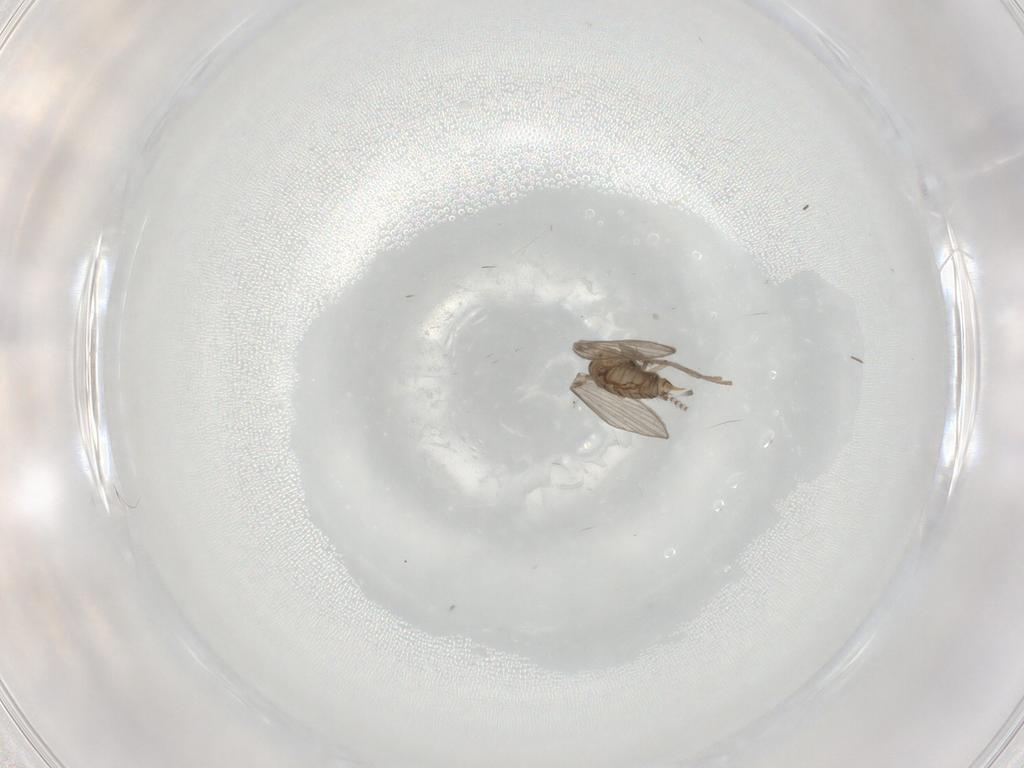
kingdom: Animalia
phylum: Arthropoda
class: Insecta
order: Diptera
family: Psychodidae
